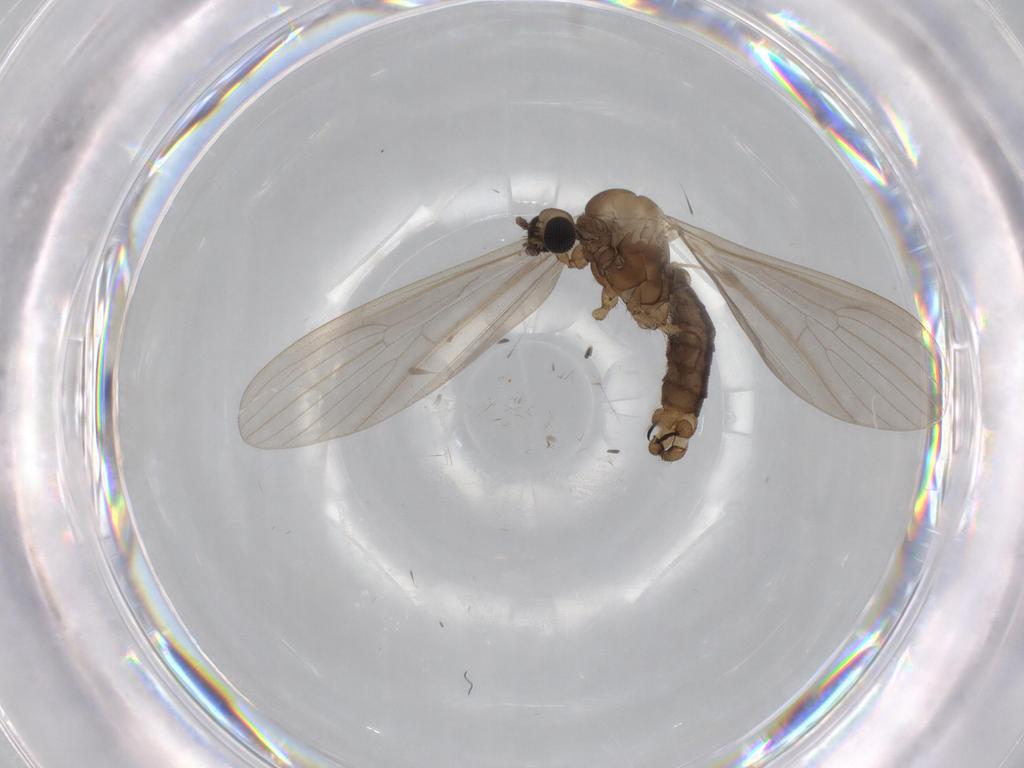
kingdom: Animalia
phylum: Arthropoda
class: Insecta
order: Diptera
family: Limoniidae
